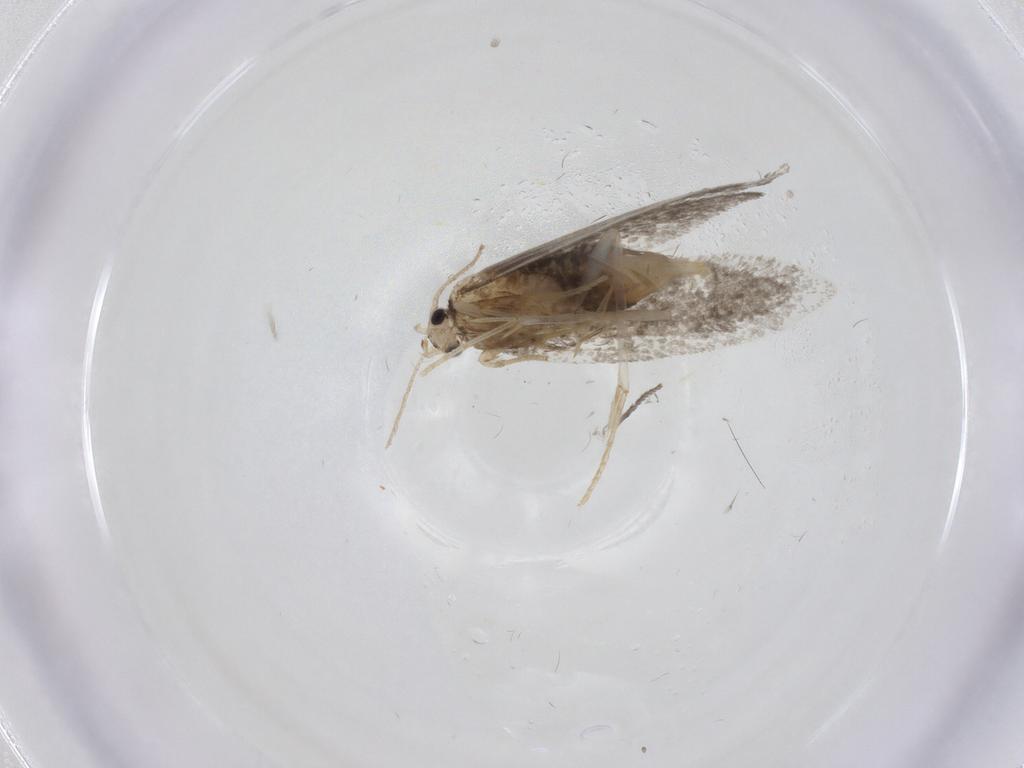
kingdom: Animalia
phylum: Arthropoda
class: Insecta
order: Lepidoptera
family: Psychidae
